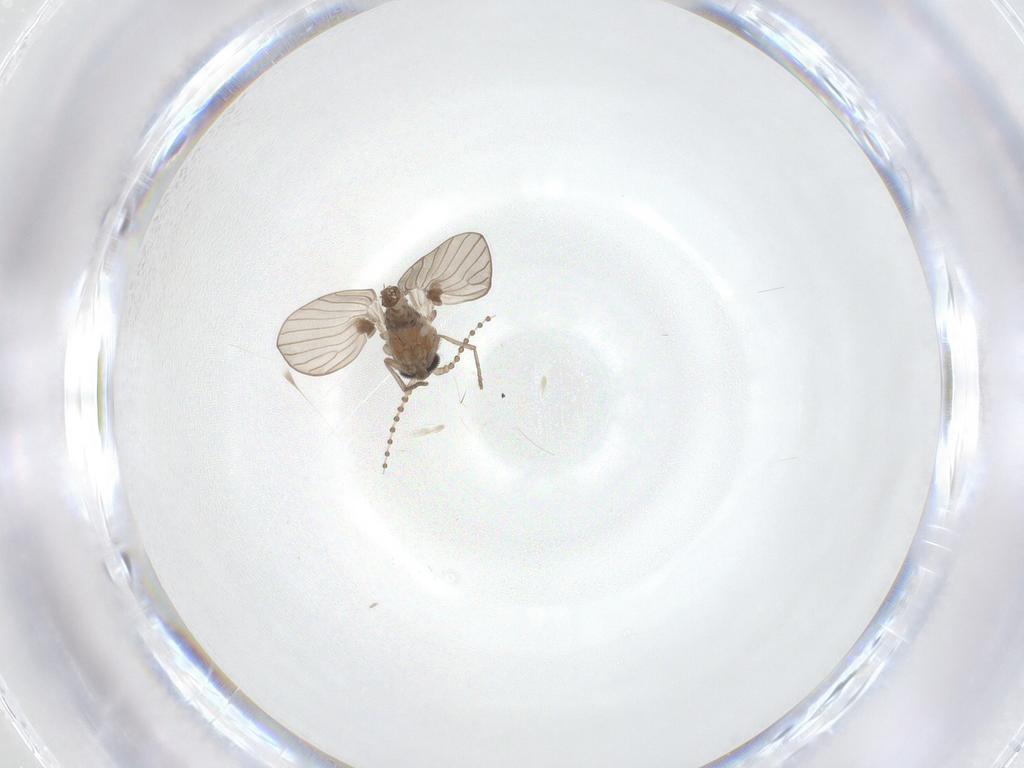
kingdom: Animalia
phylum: Arthropoda
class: Insecta
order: Diptera
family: Psychodidae
